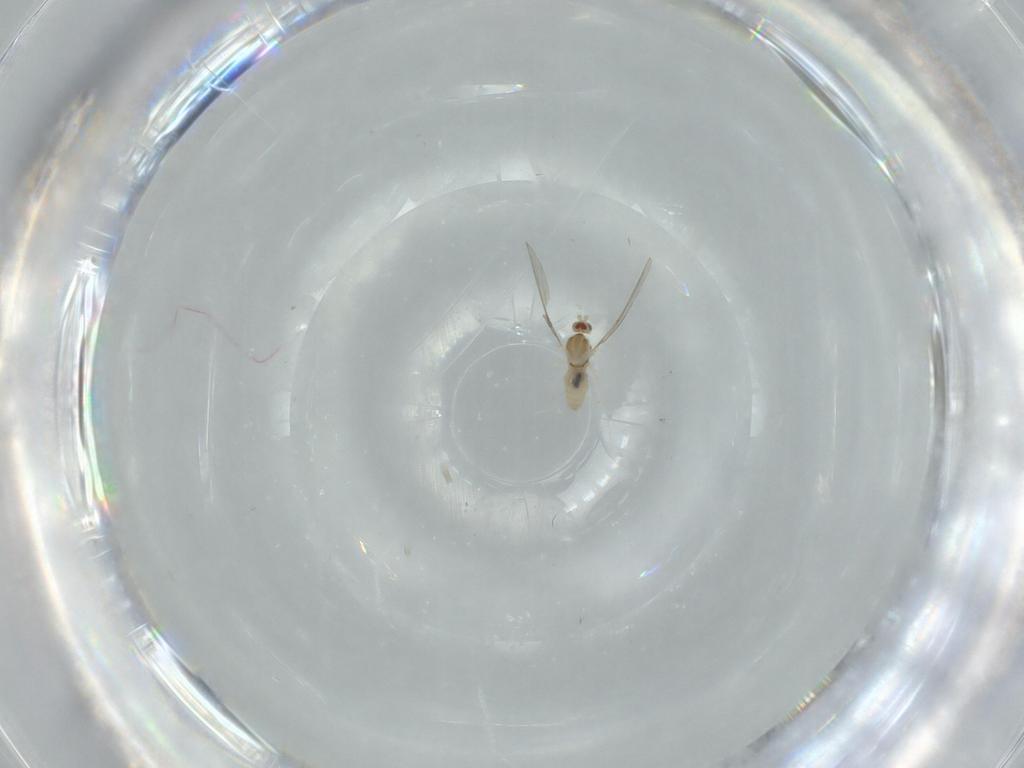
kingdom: Animalia
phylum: Arthropoda
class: Insecta
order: Diptera
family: Cecidomyiidae
